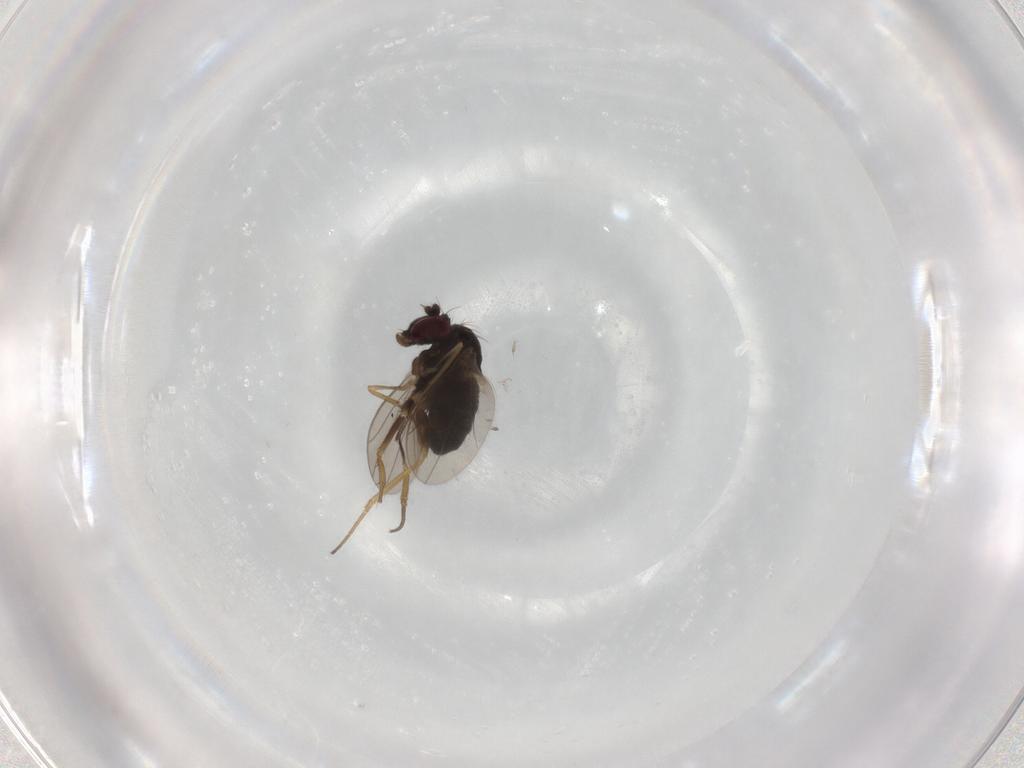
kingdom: Animalia
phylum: Arthropoda
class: Insecta
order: Diptera
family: Dolichopodidae
